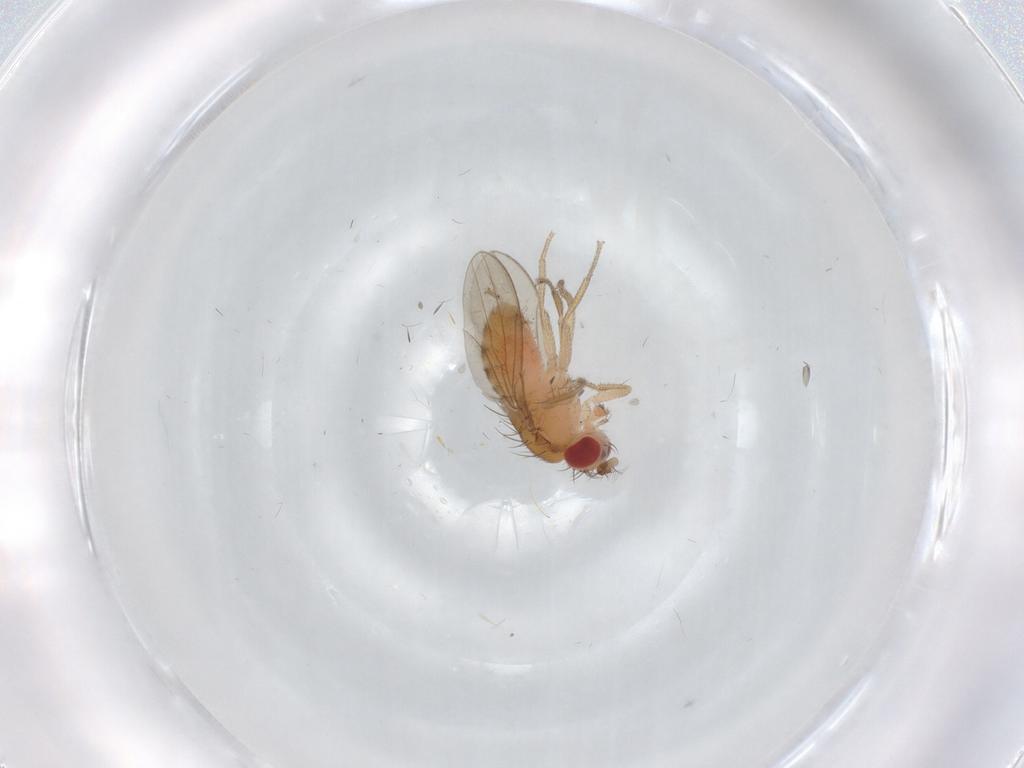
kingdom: Animalia
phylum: Arthropoda
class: Insecta
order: Diptera
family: Drosophilidae
